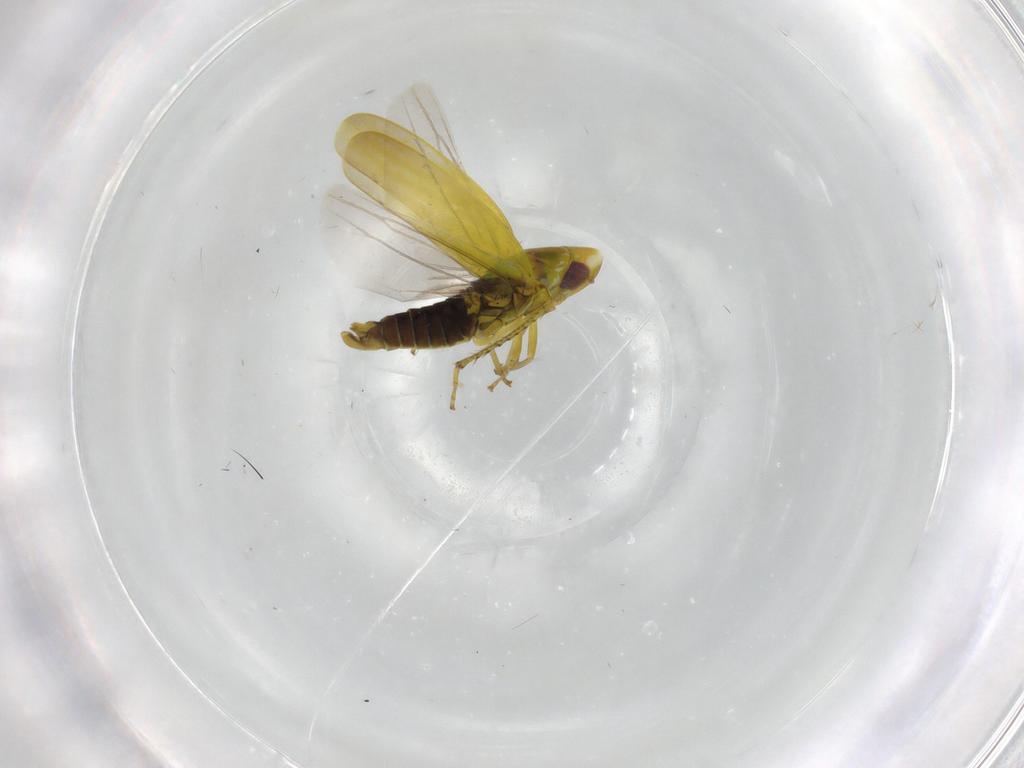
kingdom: Animalia
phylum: Arthropoda
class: Insecta
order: Hemiptera
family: Cicadellidae
